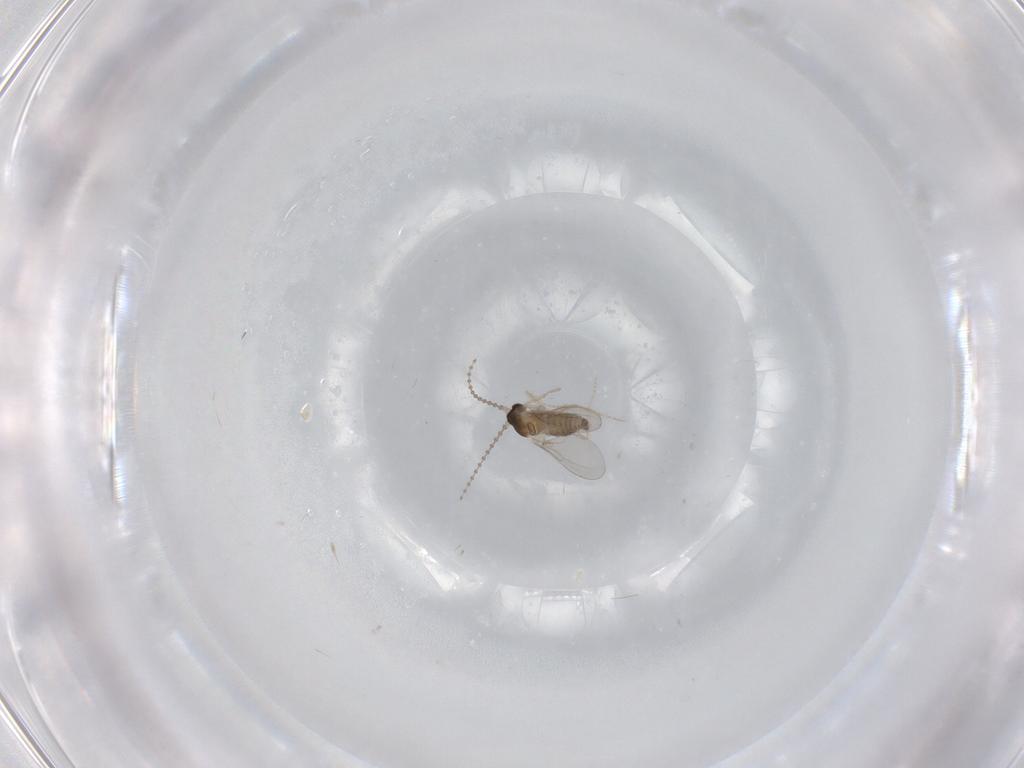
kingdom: Animalia
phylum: Arthropoda
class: Insecta
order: Diptera
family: Cecidomyiidae
